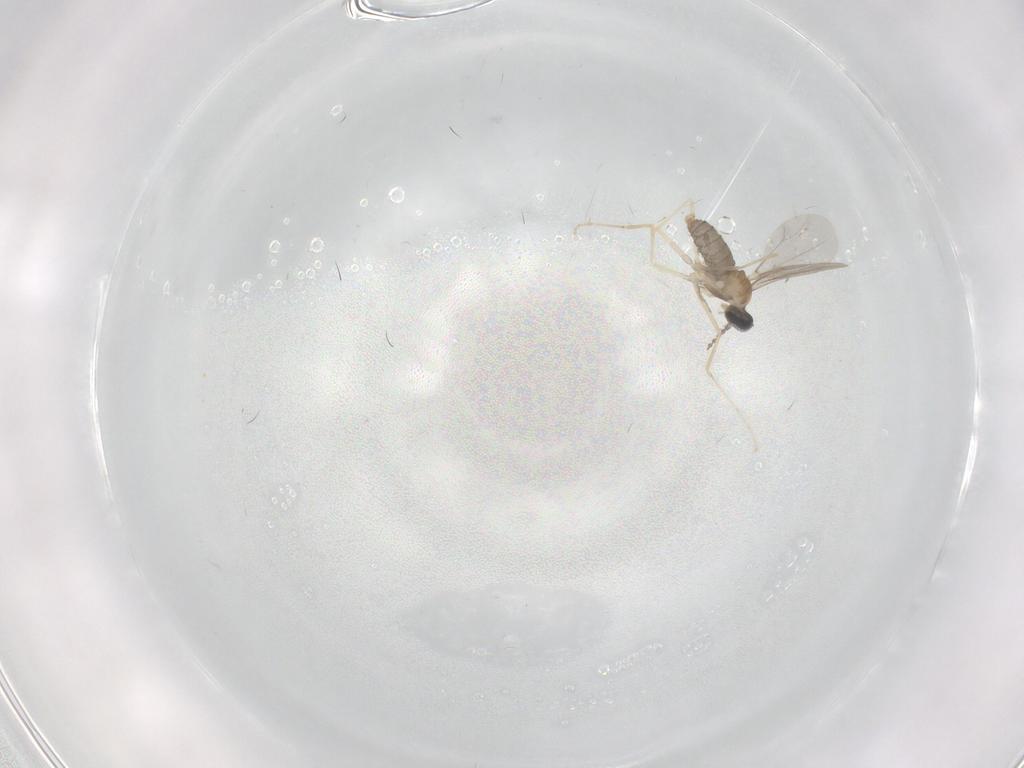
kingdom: Animalia
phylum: Arthropoda
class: Insecta
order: Diptera
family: Cecidomyiidae
